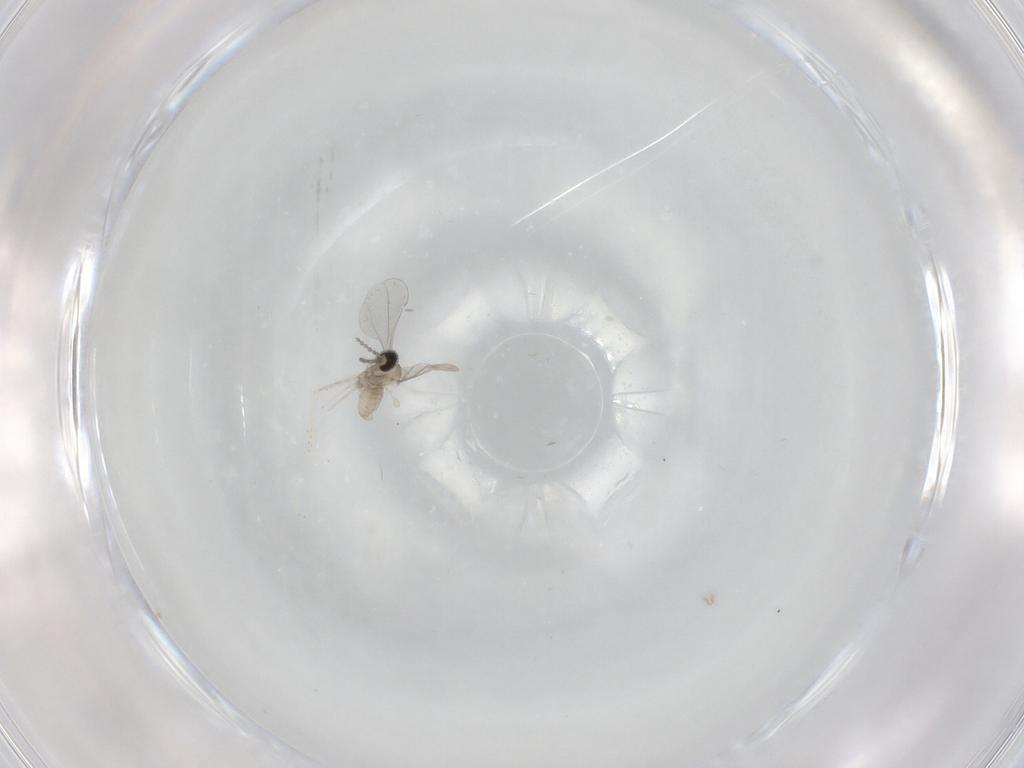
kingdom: Animalia
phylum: Arthropoda
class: Insecta
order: Diptera
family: Cecidomyiidae
